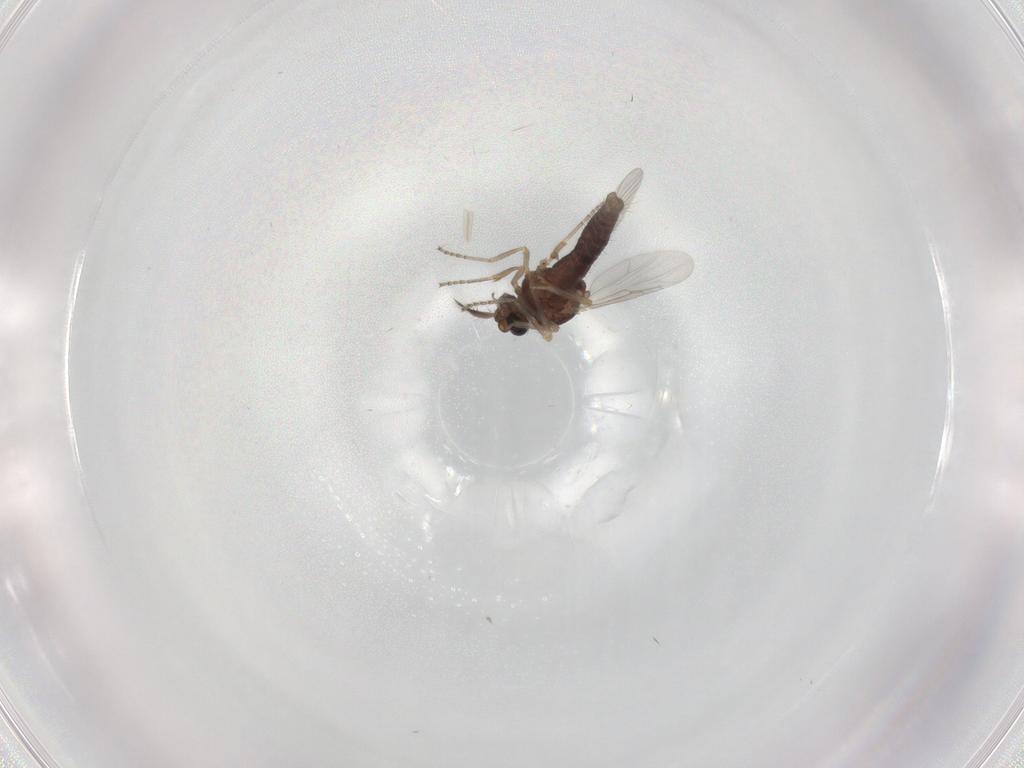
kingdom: Animalia
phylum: Arthropoda
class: Insecta
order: Diptera
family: Ceratopogonidae
